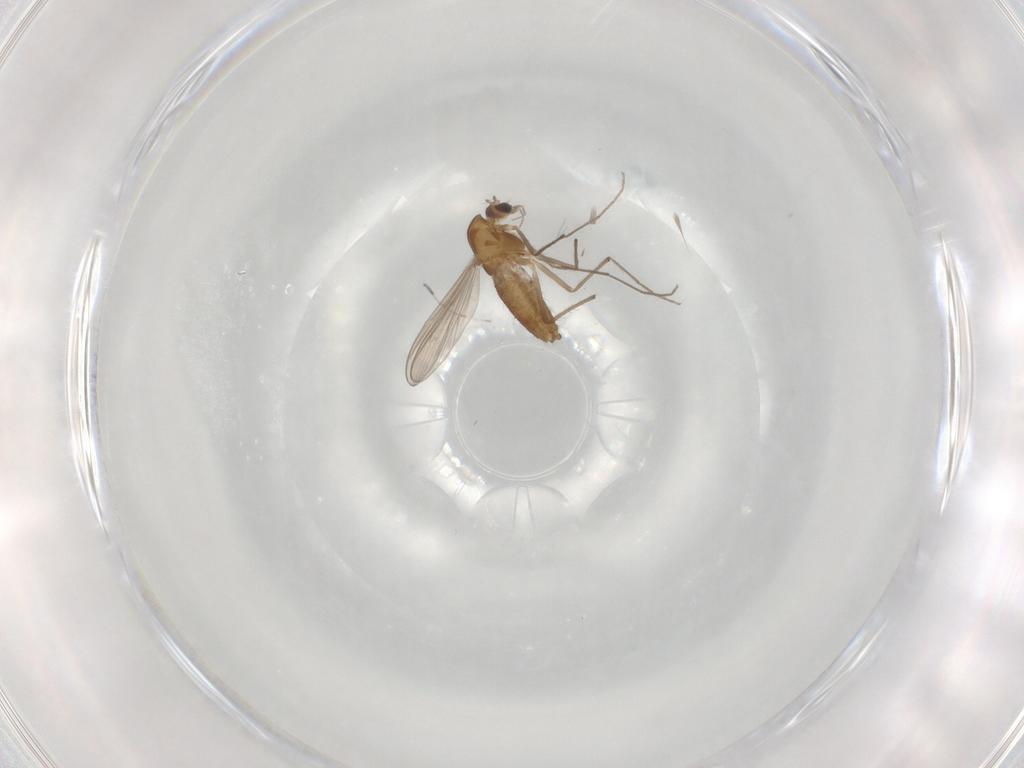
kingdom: Animalia
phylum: Arthropoda
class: Insecta
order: Diptera
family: Chironomidae
